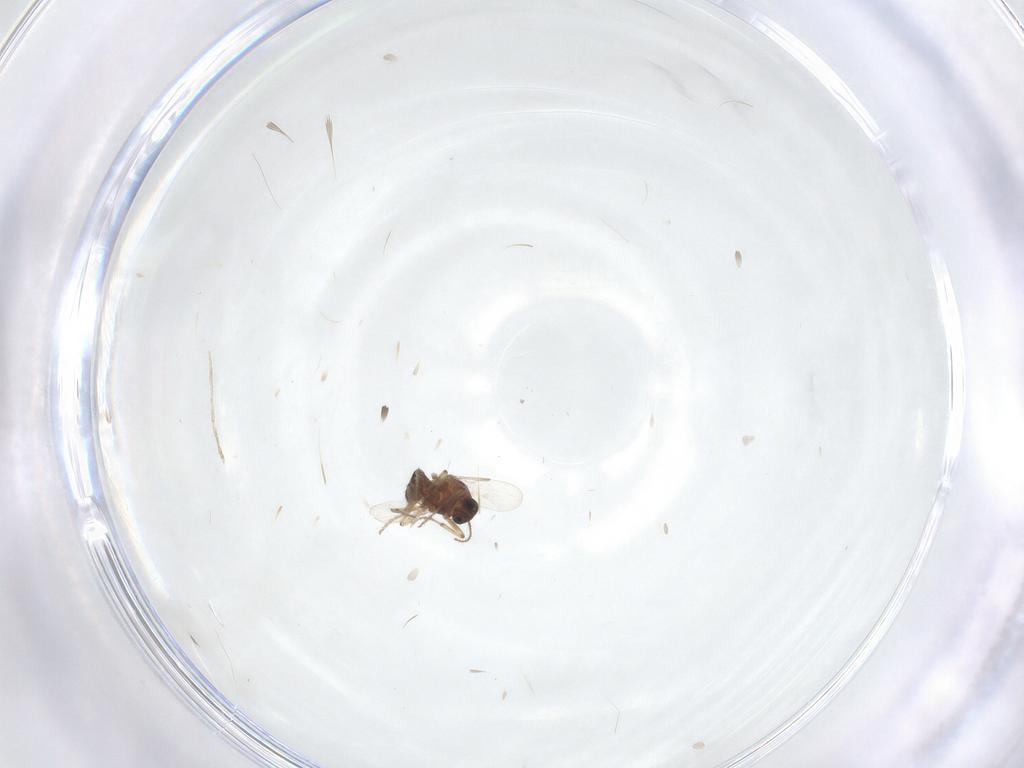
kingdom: Animalia
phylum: Arthropoda
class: Insecta
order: Diptera
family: Ceratopogonidae
